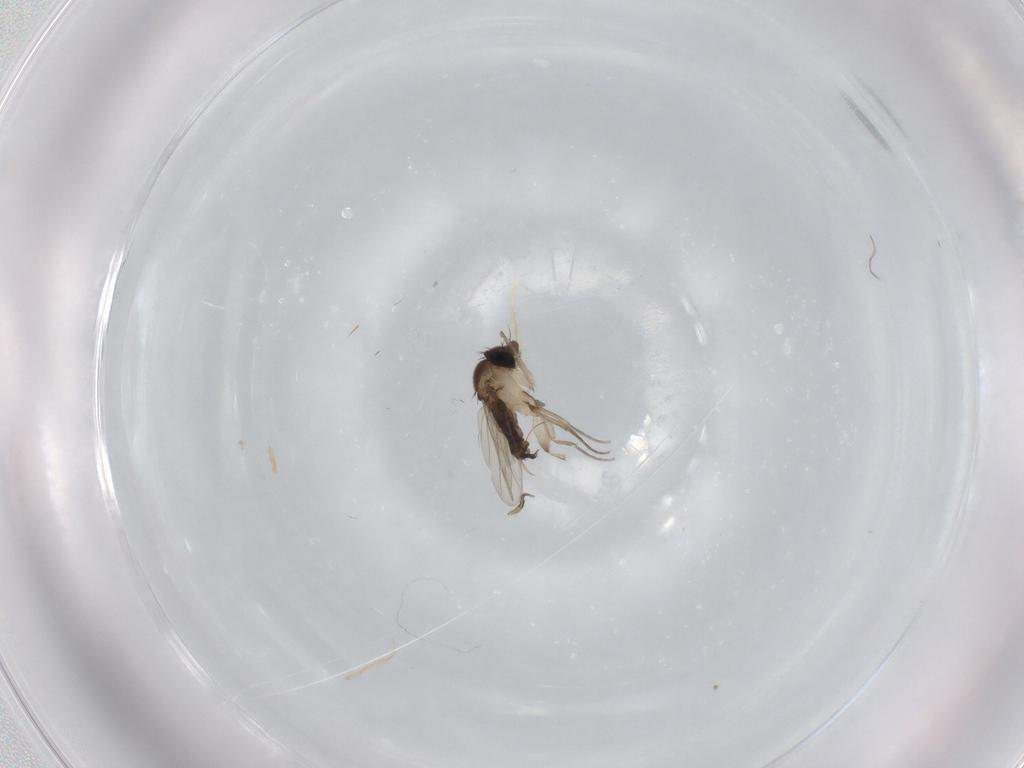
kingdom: Animalia
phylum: Arthropoda
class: Insecta
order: Diptera
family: Phoridae
